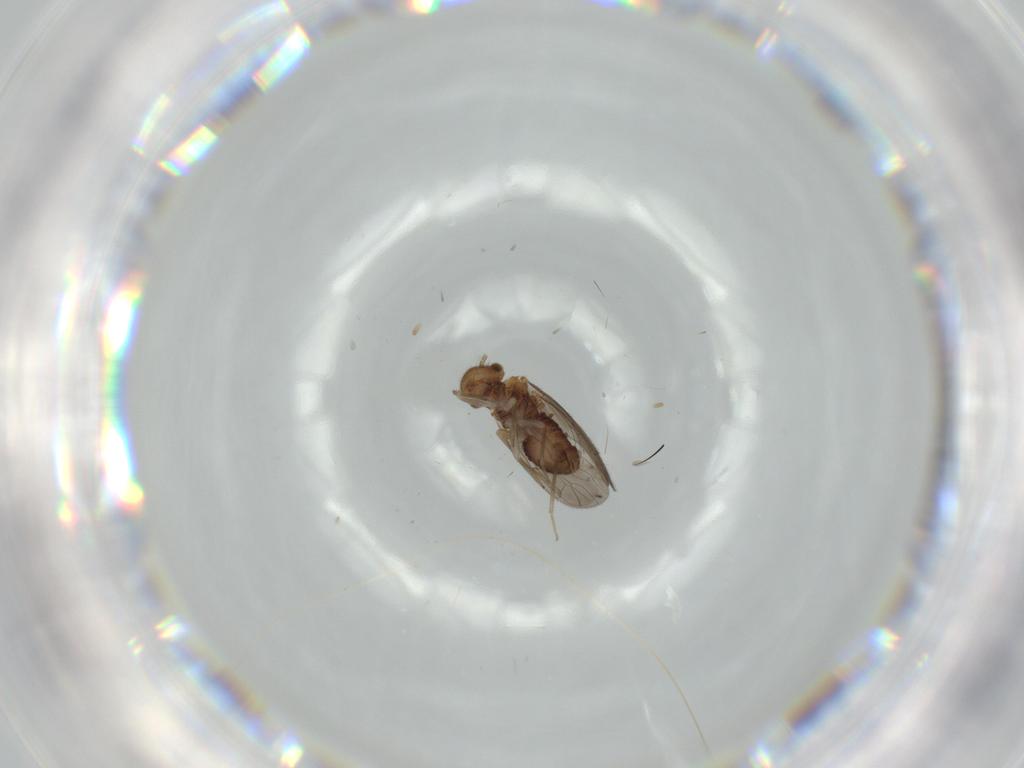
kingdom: Animalia
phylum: Arthropoda
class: Insecta
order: Psocodea
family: Ectopsocidae
